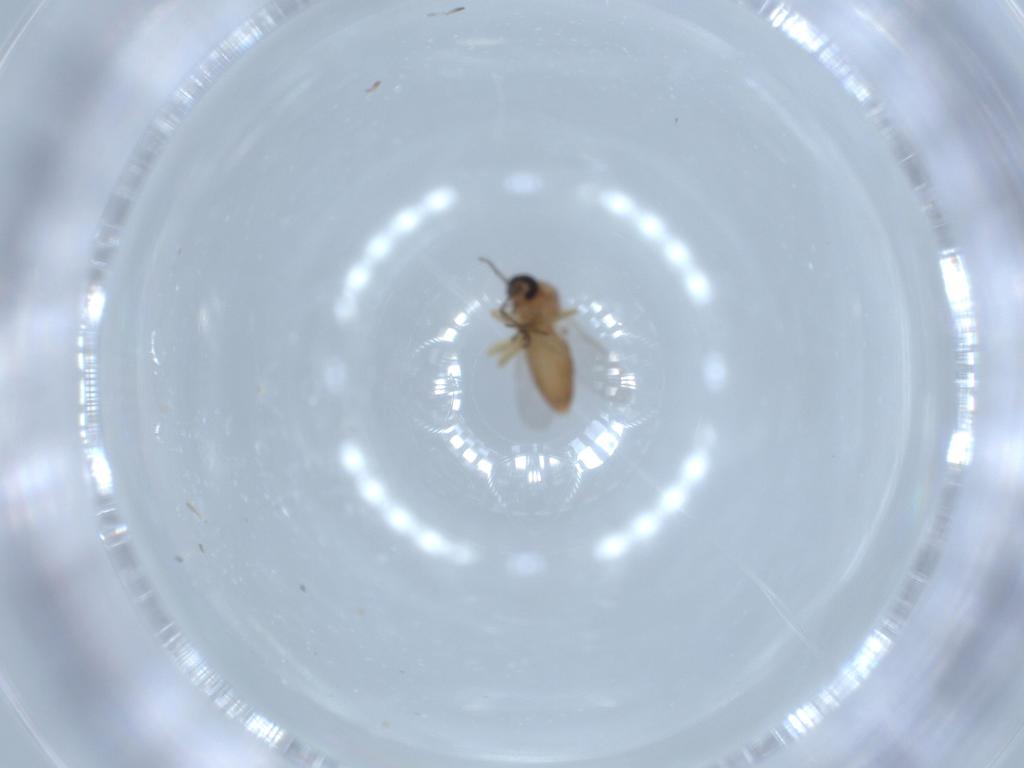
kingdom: Animalia
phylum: Arthropoda
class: Insecta
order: Diptera
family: Ceratopogonidae
